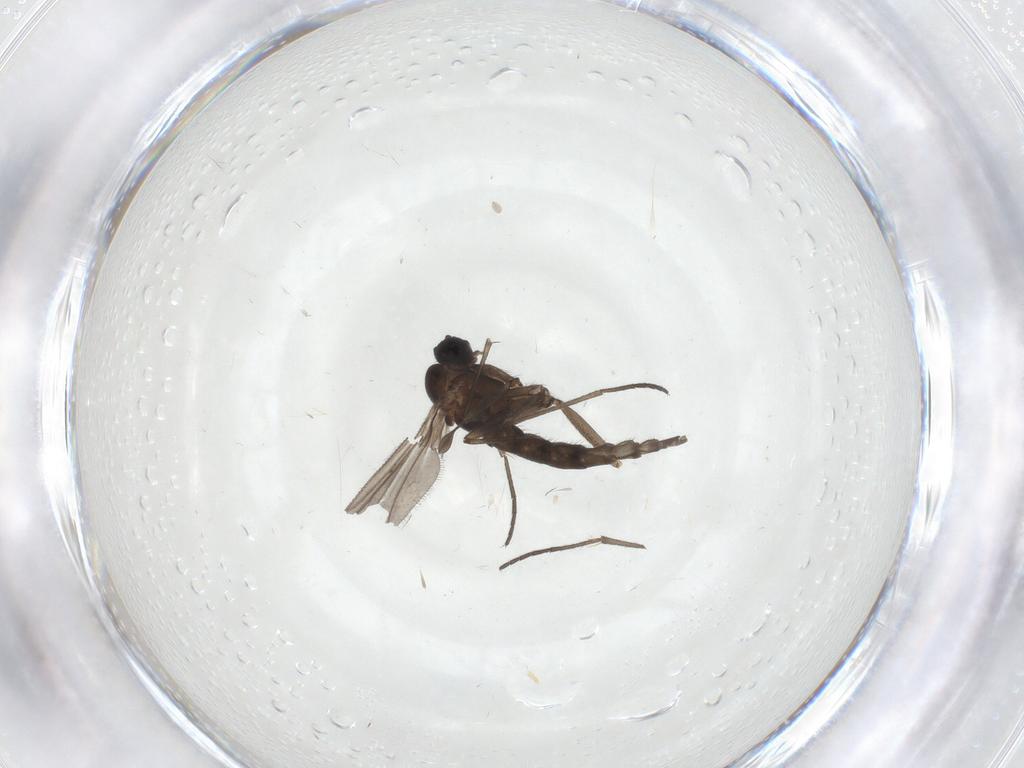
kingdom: Animalia
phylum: Arthropoda
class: Insecta
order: Diptera
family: Sciaridae
